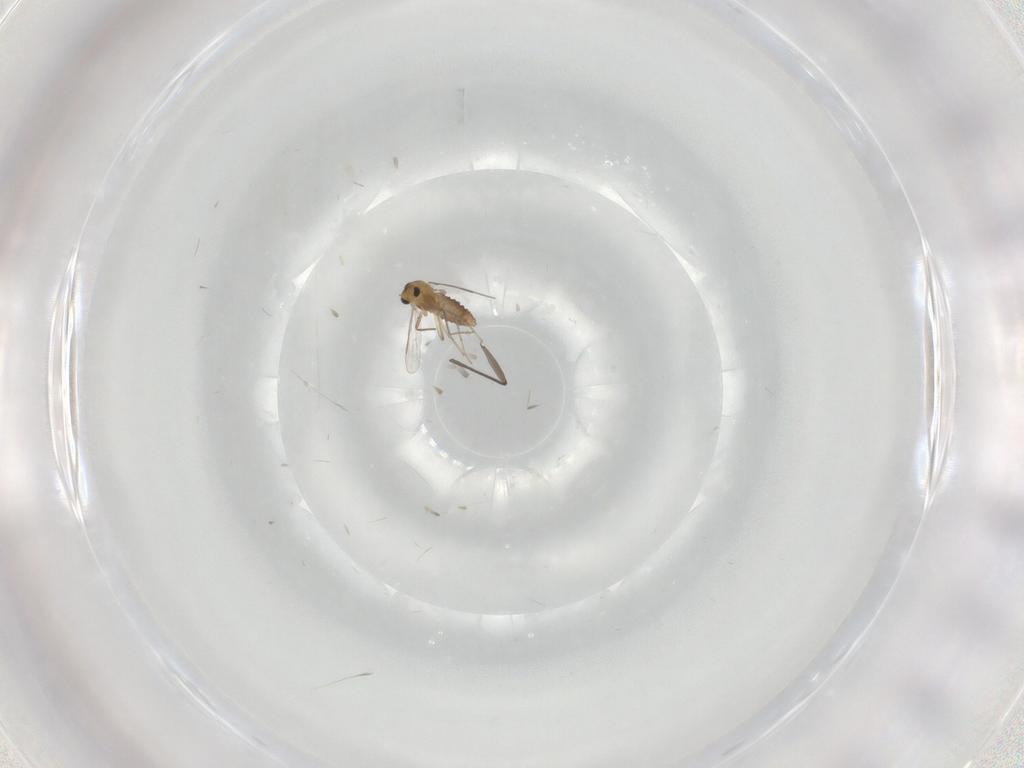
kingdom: Animalia
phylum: Arthropoda
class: Insecta
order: Diptera
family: Chironomidae
